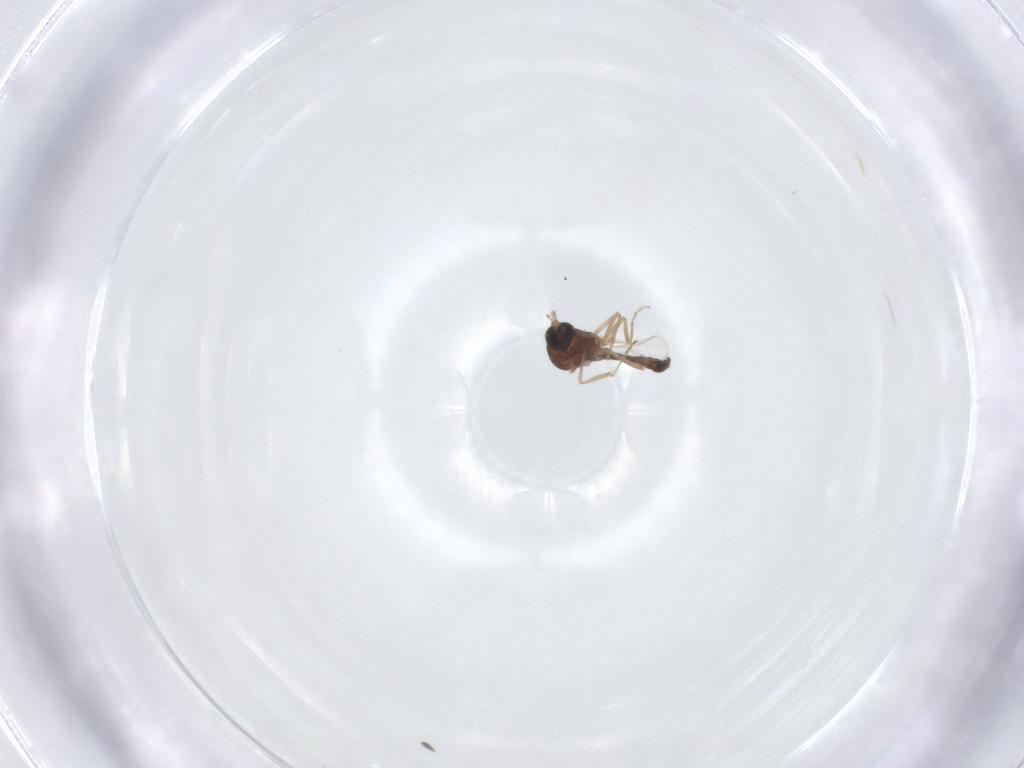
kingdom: Animalia
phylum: Arthropoda
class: Insecta
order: Diptera
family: Ceratopogonidae
